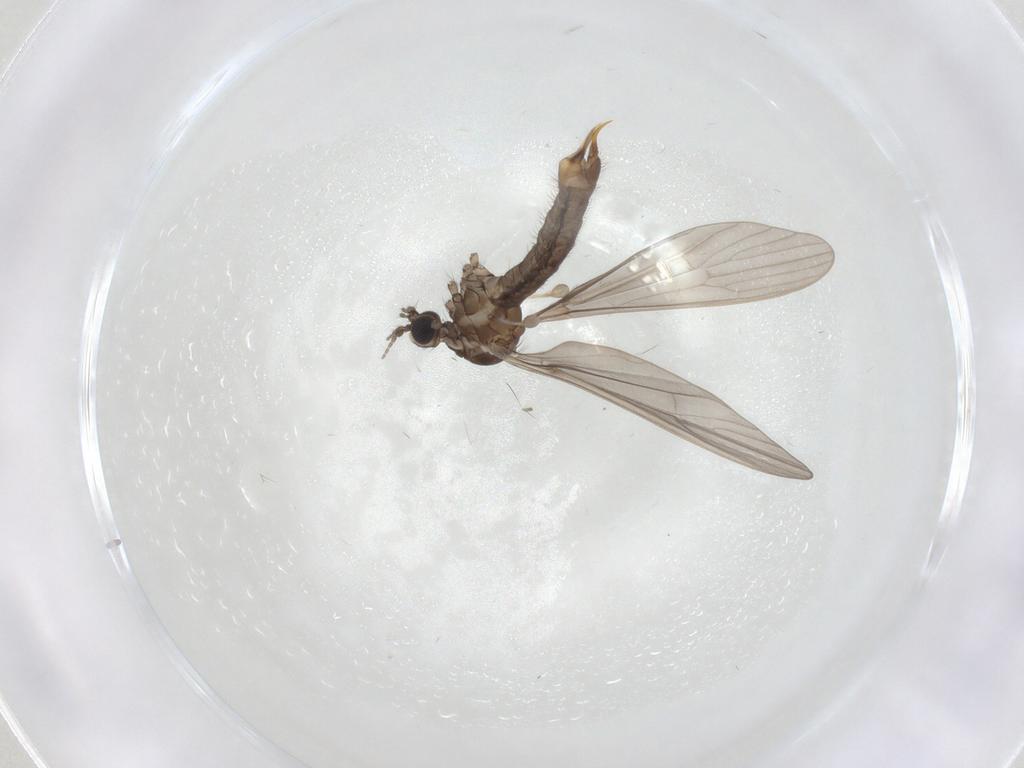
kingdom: Animalia
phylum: Arthropoda
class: Insecta
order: Diptera
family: Limoniidae
